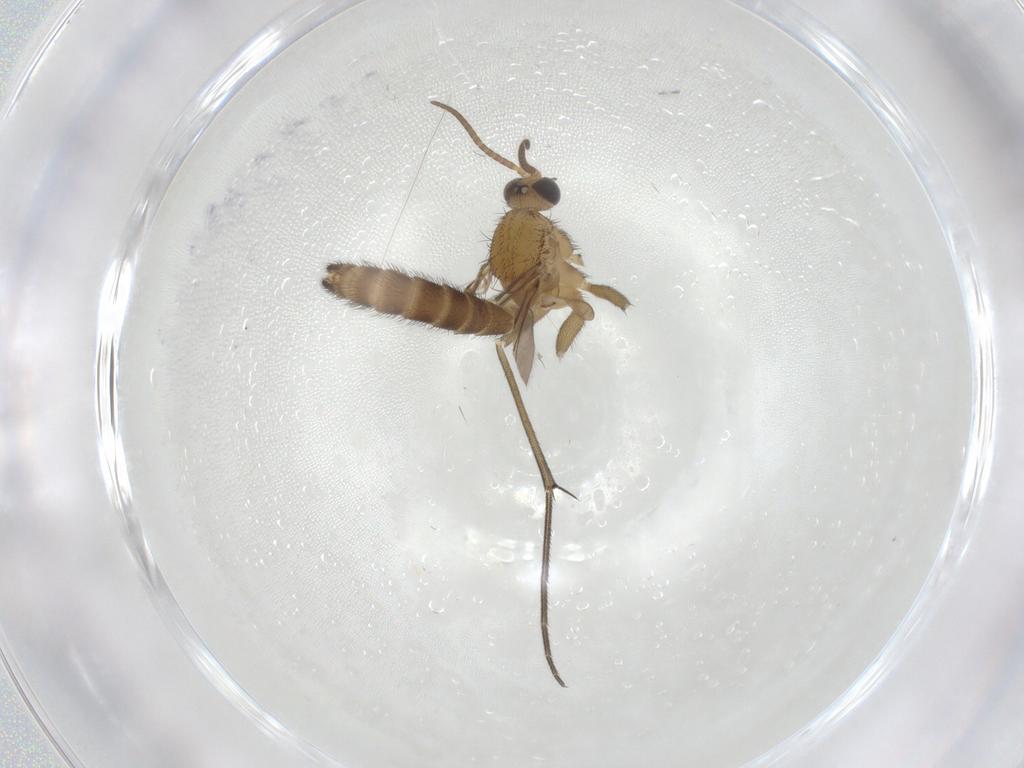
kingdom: Animalia
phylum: Arthropoda
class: Insecta
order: Diptera
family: Keroplatidae
